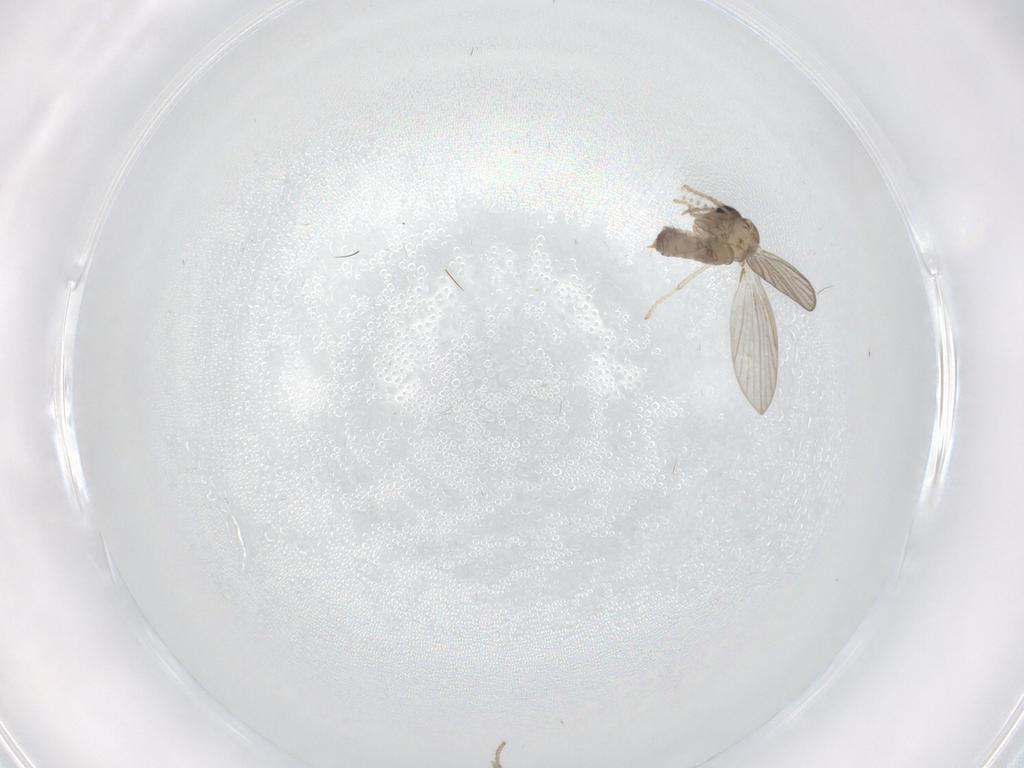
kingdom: Animalia
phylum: Arthropoda
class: Insecta
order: Diptera
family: Psychodidae
